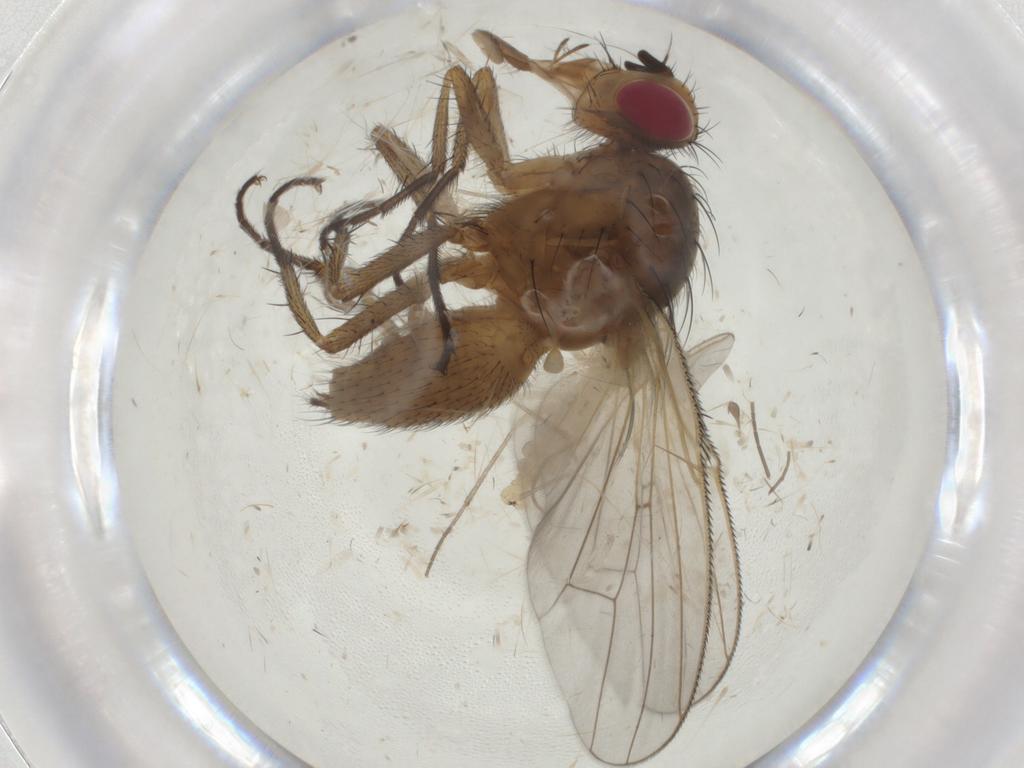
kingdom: Animalia
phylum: Arthropoda
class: Insecta
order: Diptera
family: Anthomyiidae
